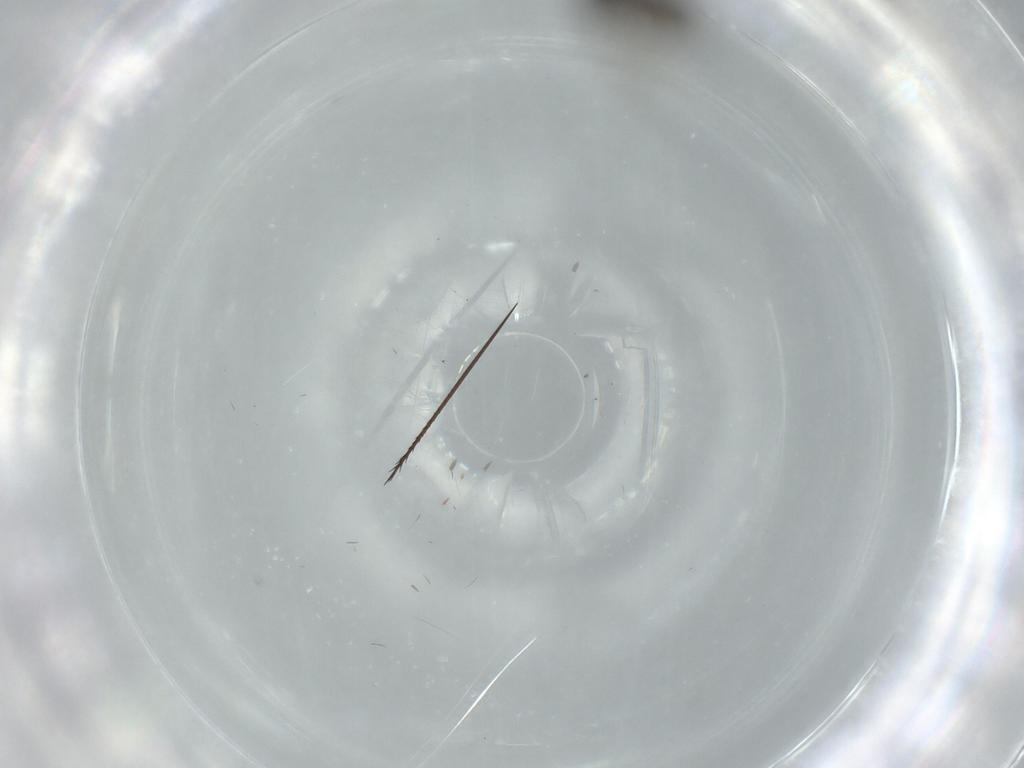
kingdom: Animalia
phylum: Arthropoda
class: Insecta
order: Diptera
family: Phoridae
